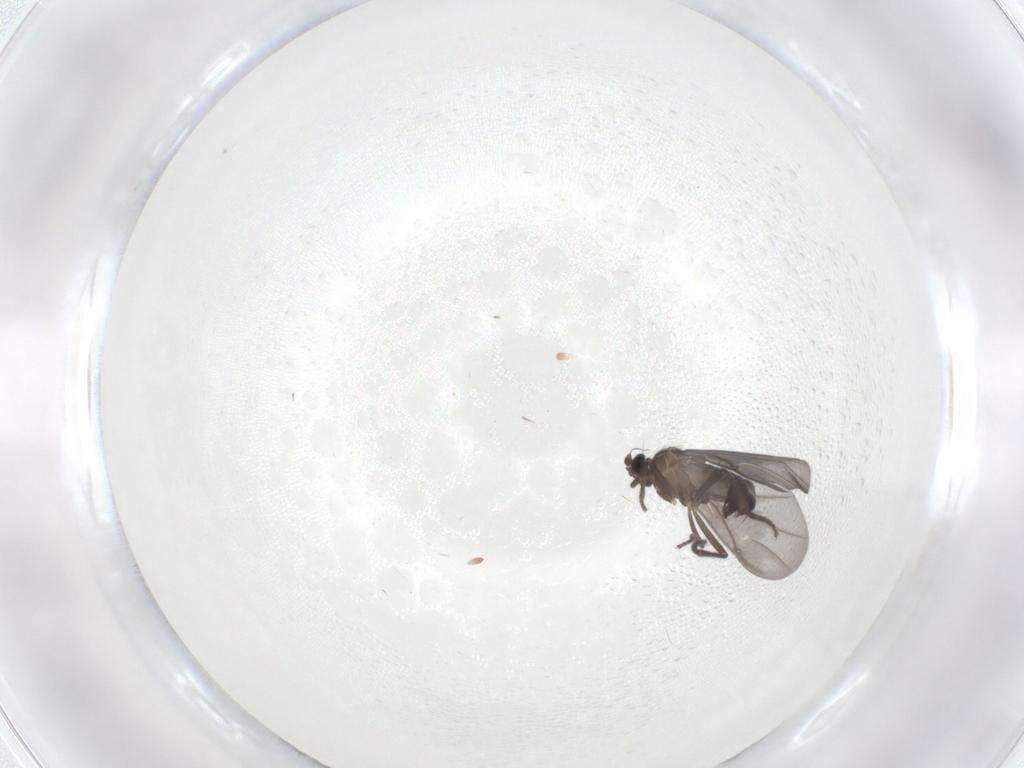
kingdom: Animalia
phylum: Arthropoda
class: Insecta
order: Diptera
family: Phoridae
